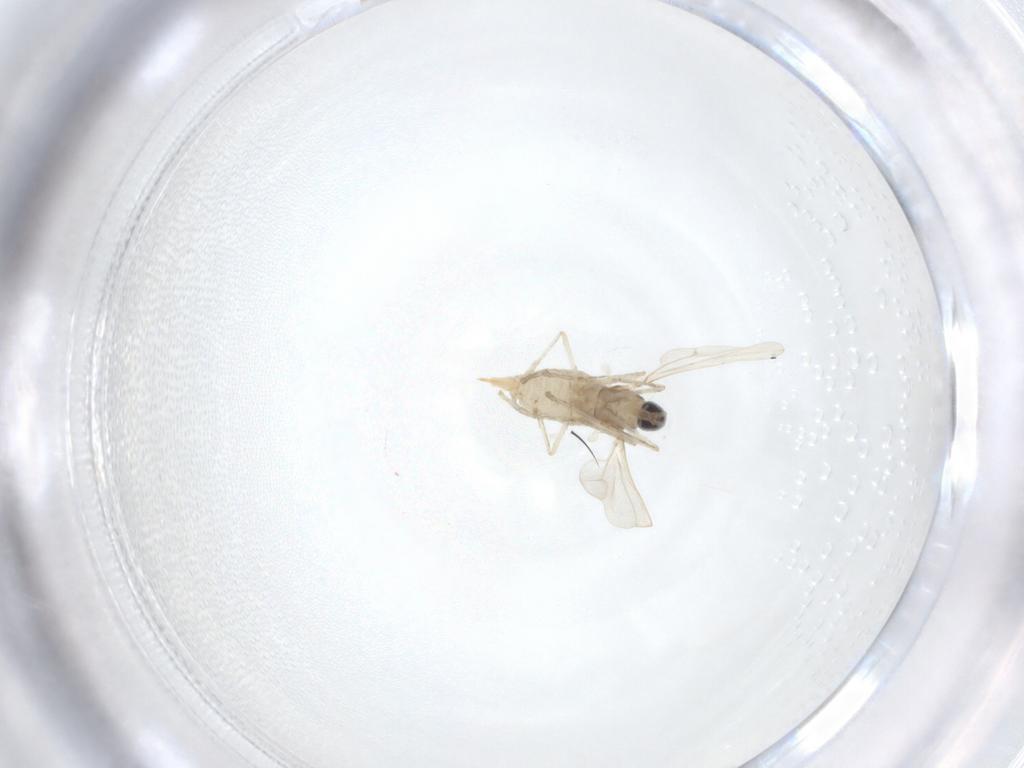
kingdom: Animalia
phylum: Arthropoda
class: Insecta
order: Diptera
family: Cecidomyiidae
